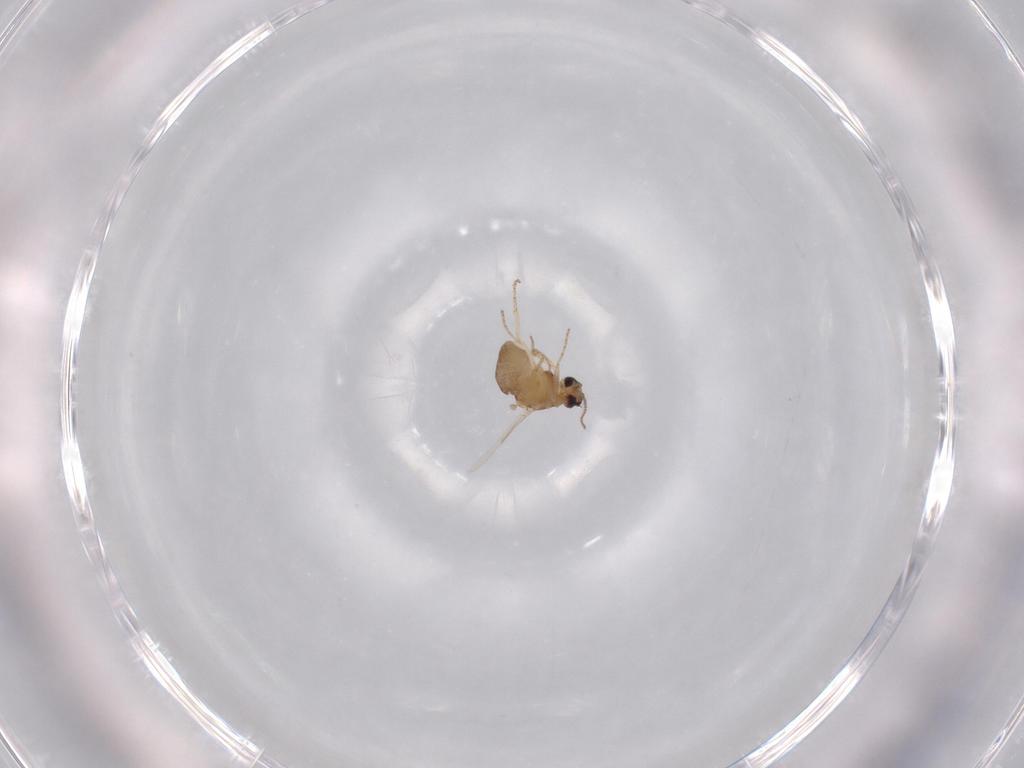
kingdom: Animalia
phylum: Arthropoda
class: Insecta
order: Diptera
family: Ceratopogonidae
